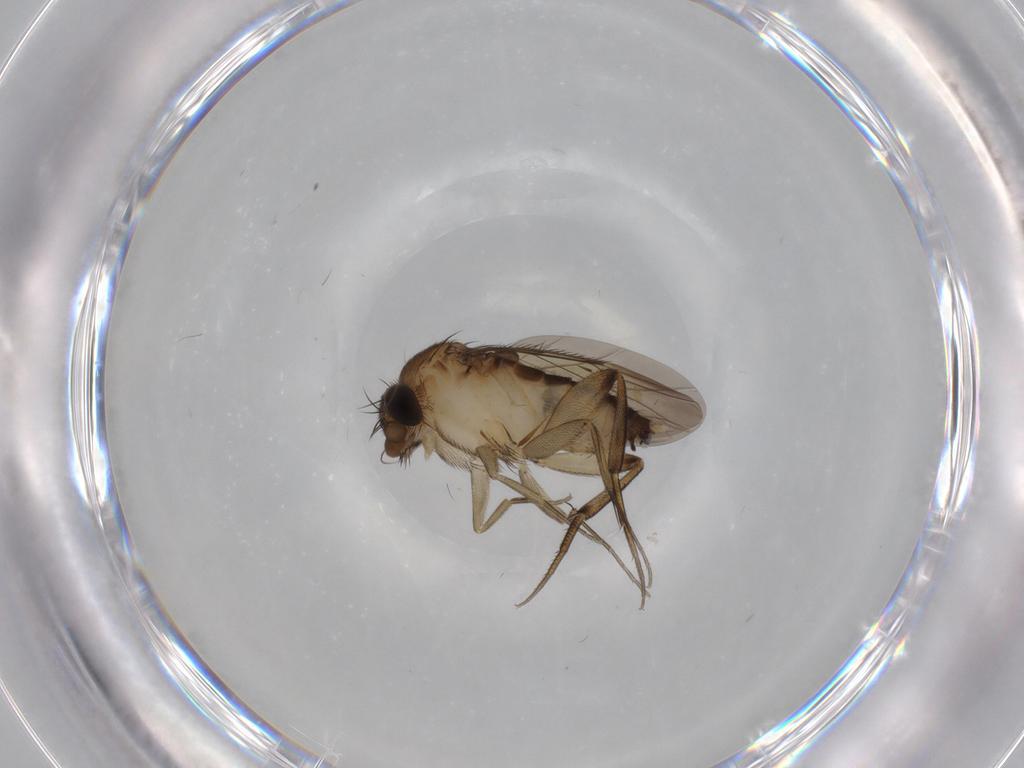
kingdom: Animalia
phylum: Arthropoda
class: Insecta
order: Diptera
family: Phoridae
